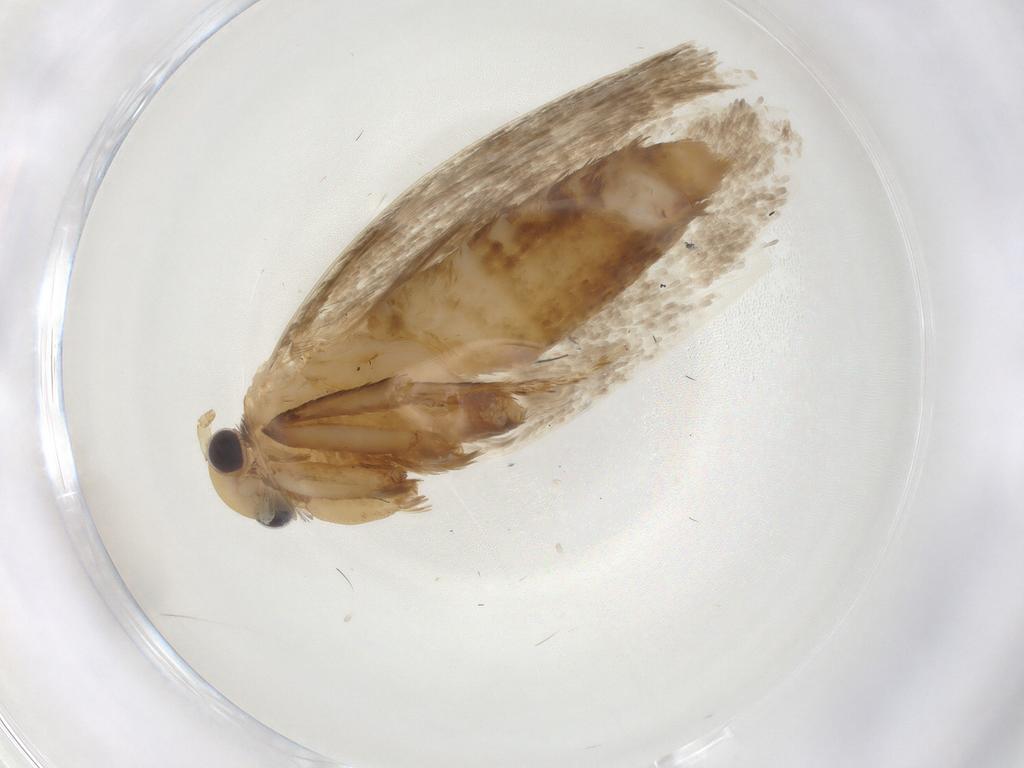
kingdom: Animalia
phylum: Arthropoda
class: Insecta
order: Lepidoptera
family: Tineidae
